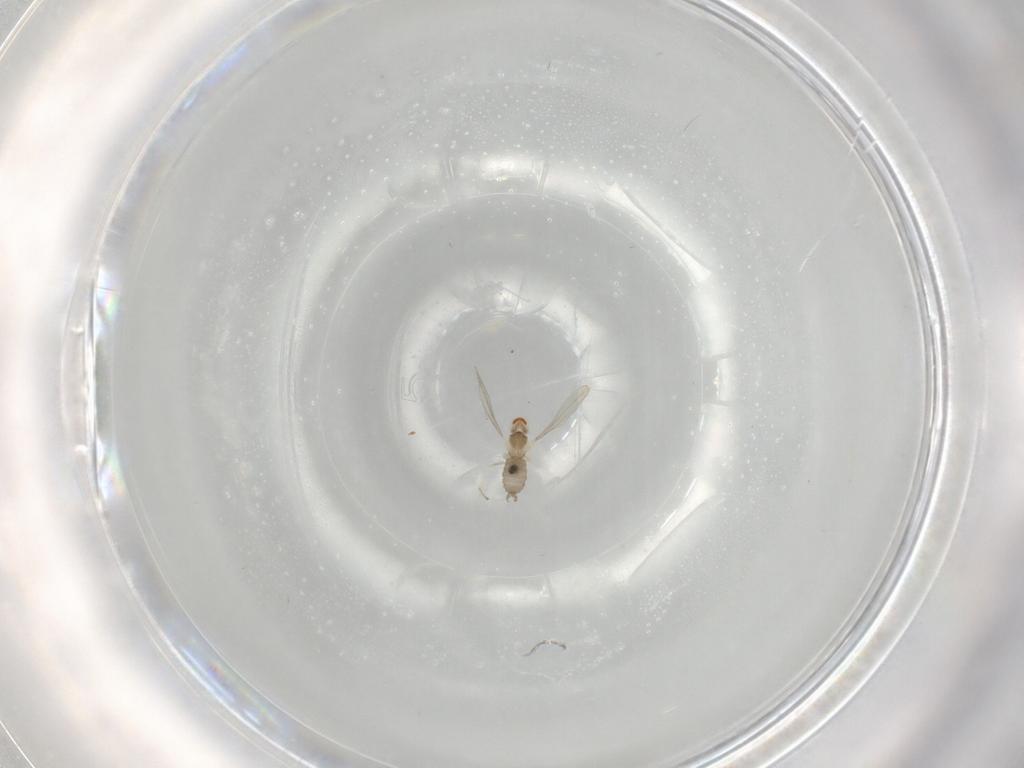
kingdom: Animalia
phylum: Arthropoda
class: Insecta
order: Diptera
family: Cecidomyiidae
